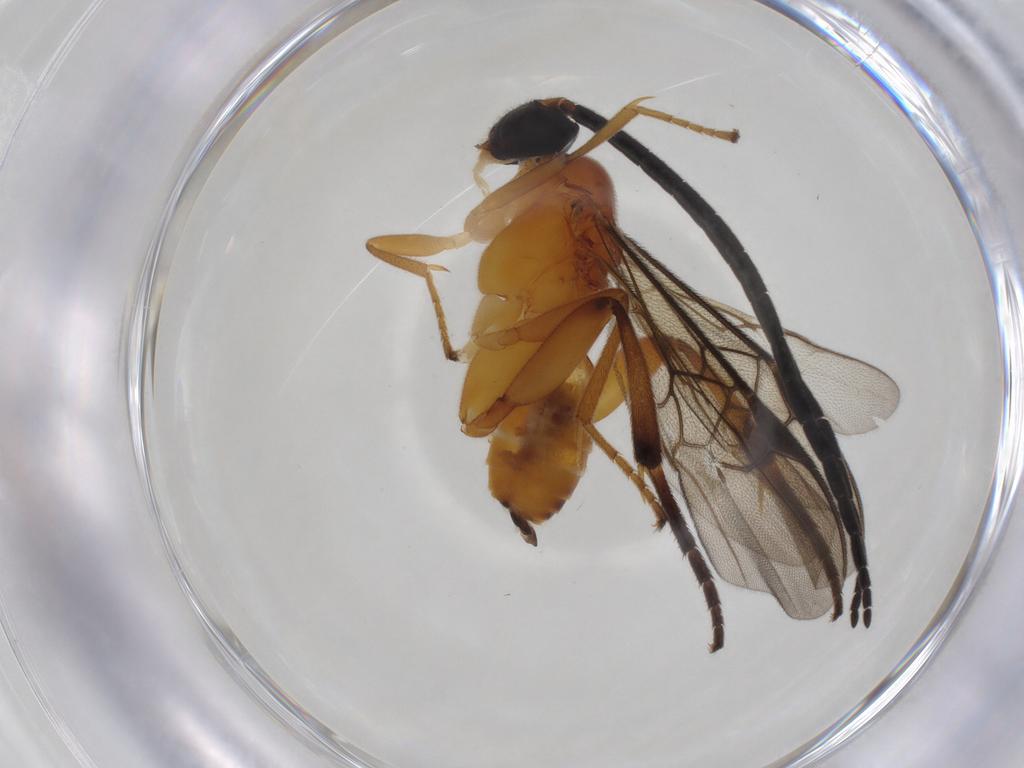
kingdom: Animalia
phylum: Arthropoda
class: Insecta
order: Hymenoptera
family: Braconidae
